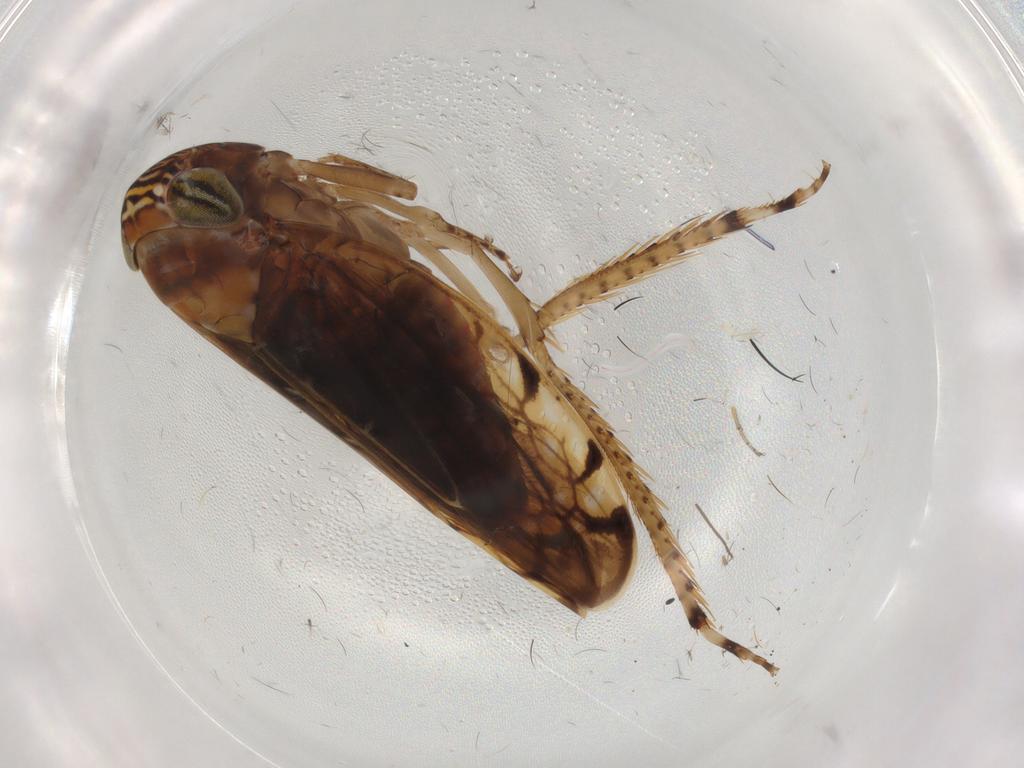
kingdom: Animalia
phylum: Arthropoda
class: Insecta
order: Hemiptera
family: Cicadellidae
